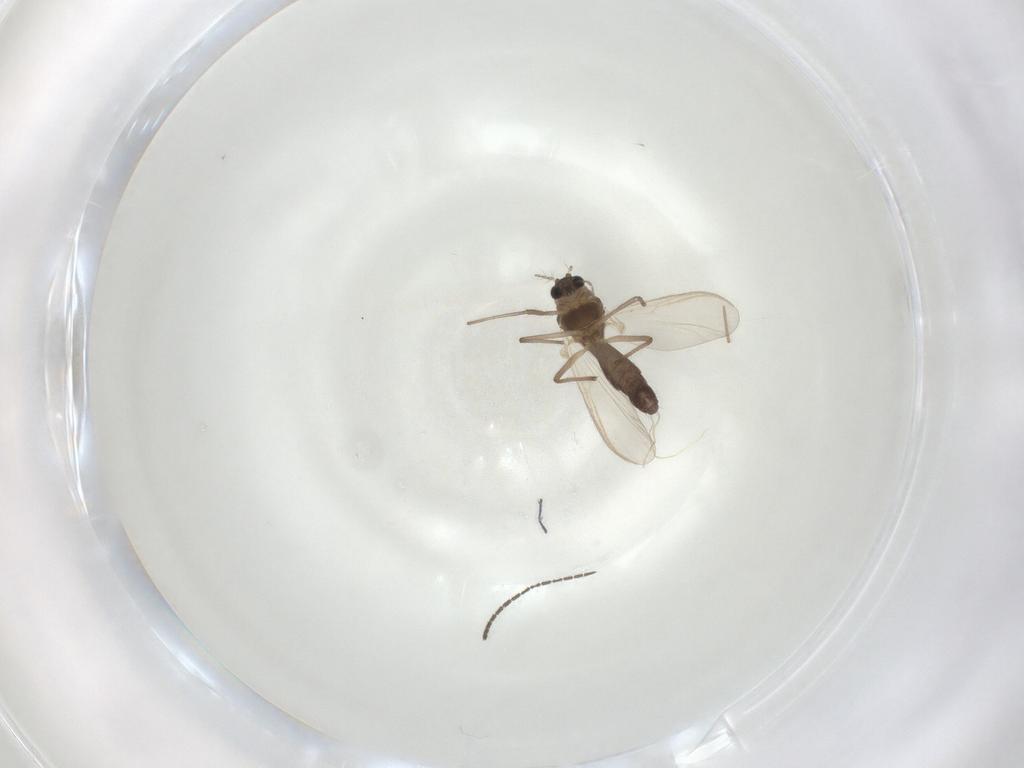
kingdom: Animalia
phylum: Arthropoda
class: Insecta
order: Diptera
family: Chironomidae
